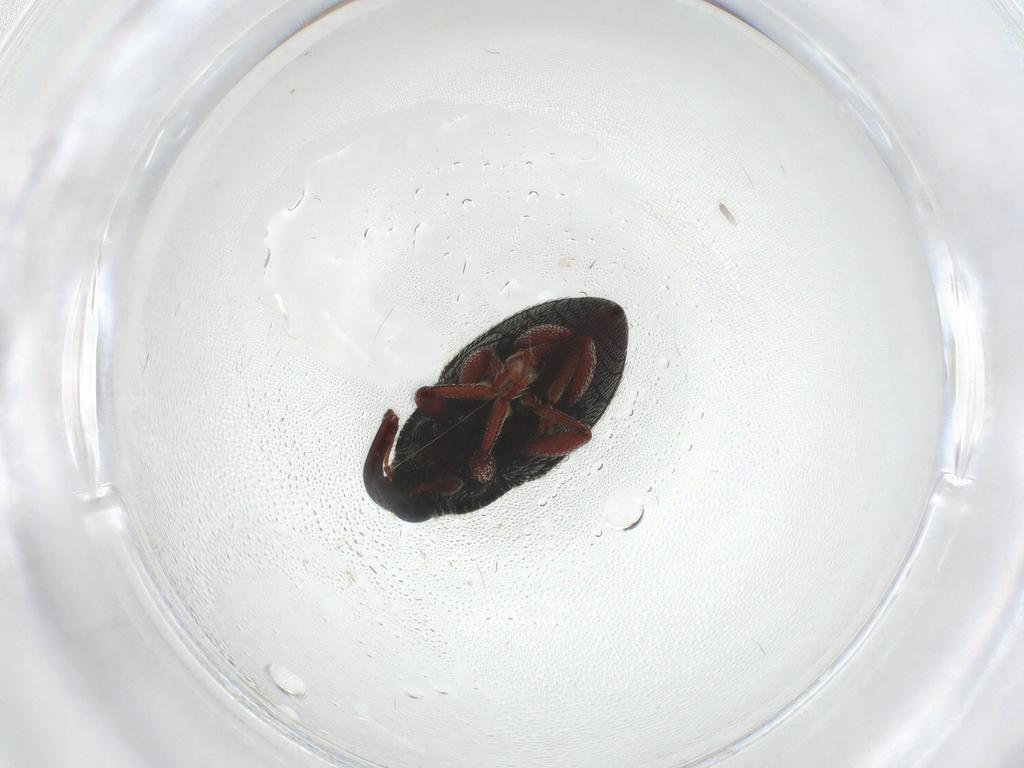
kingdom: Animalia
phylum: Arthropoda
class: Insecta
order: Coleoptera
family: Curculionidae
